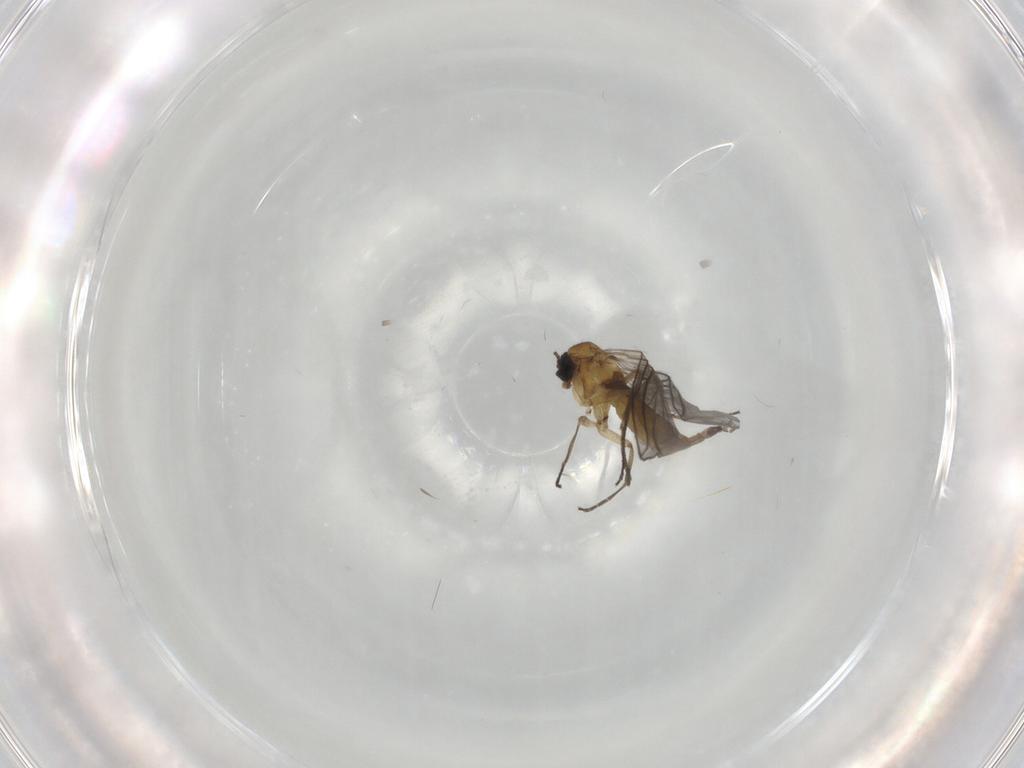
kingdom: Animalia
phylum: Arthropoda
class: Insecta
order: Diptera
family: Sciaridae
